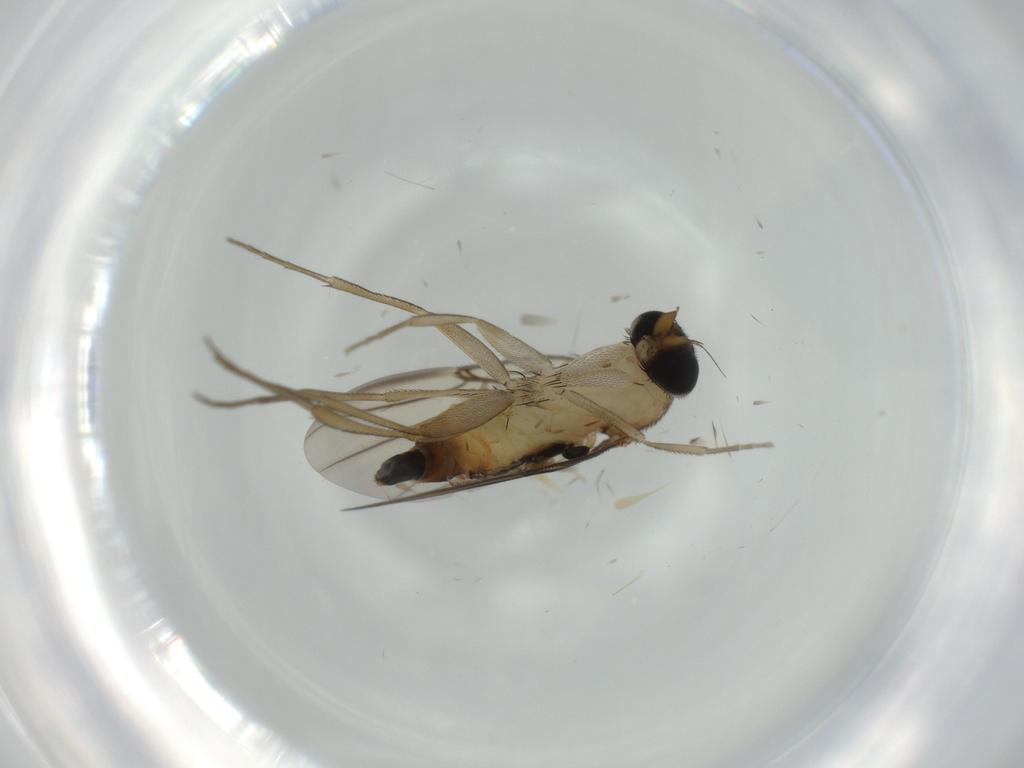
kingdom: Animalia
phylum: Arthropoda
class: Insecta
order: Diptera
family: Phoridae
